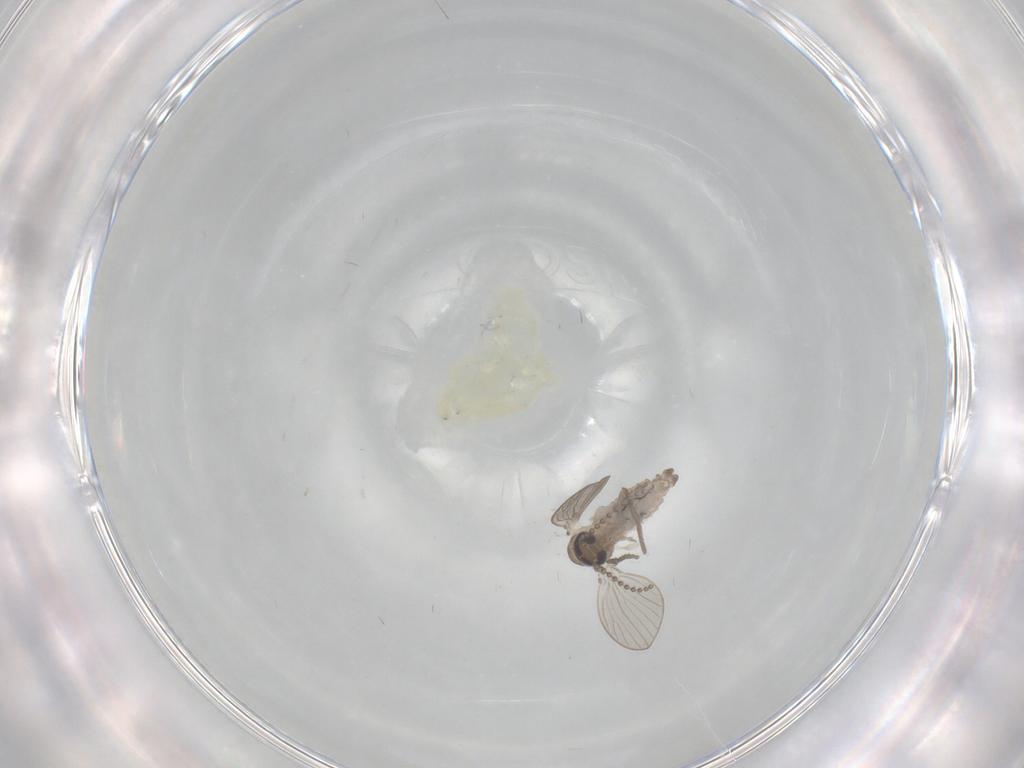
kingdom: Animalia
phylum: Arthropoda
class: Insecta
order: Diptera
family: Psychodidae
